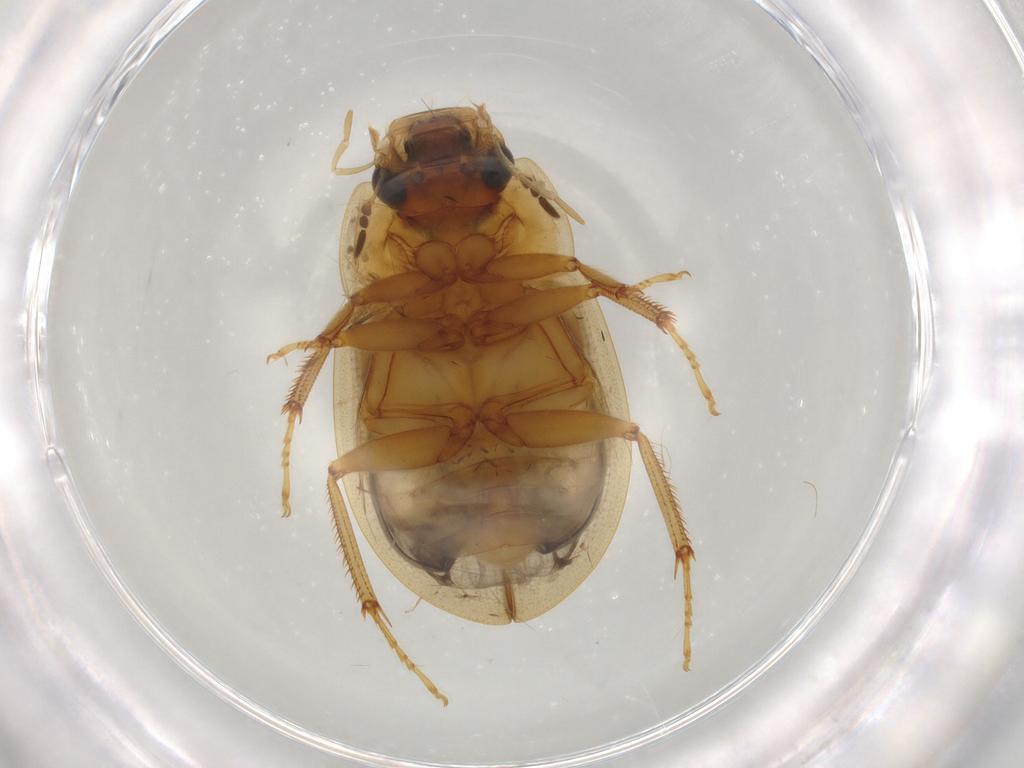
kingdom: Animalia
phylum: Arthropoda
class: Insecta
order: Coleoptera
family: Hydrophilidae
